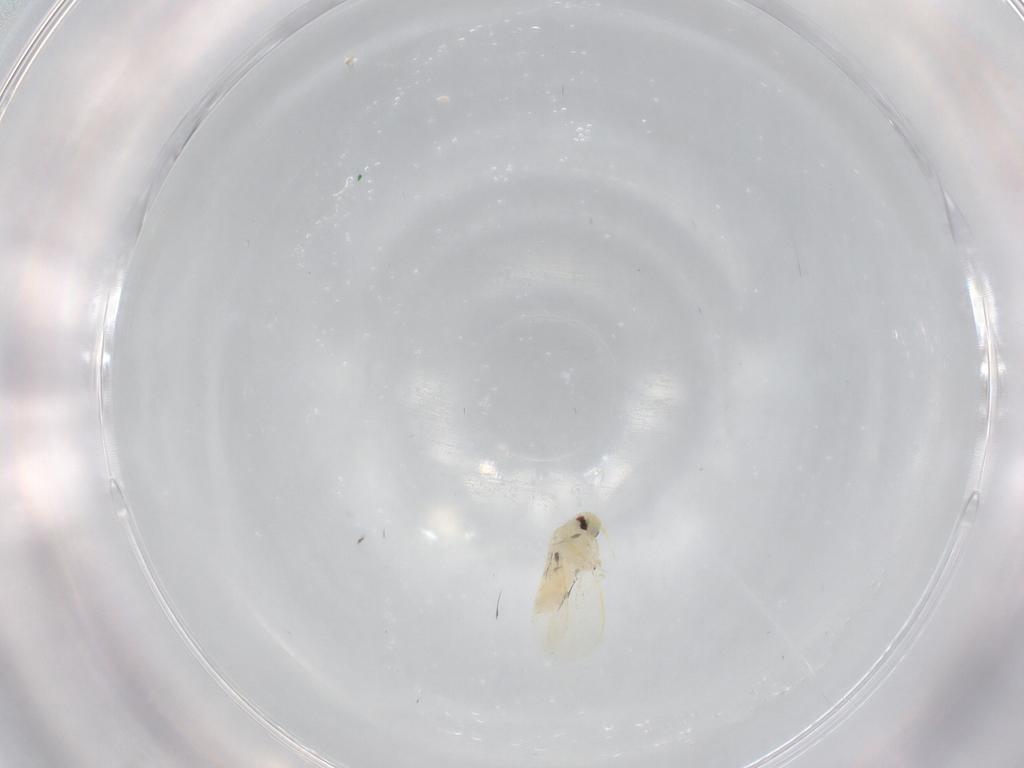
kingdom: Animalia
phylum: Arthropoda
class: Insecta
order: Hemiptera
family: Aleyrodidae
